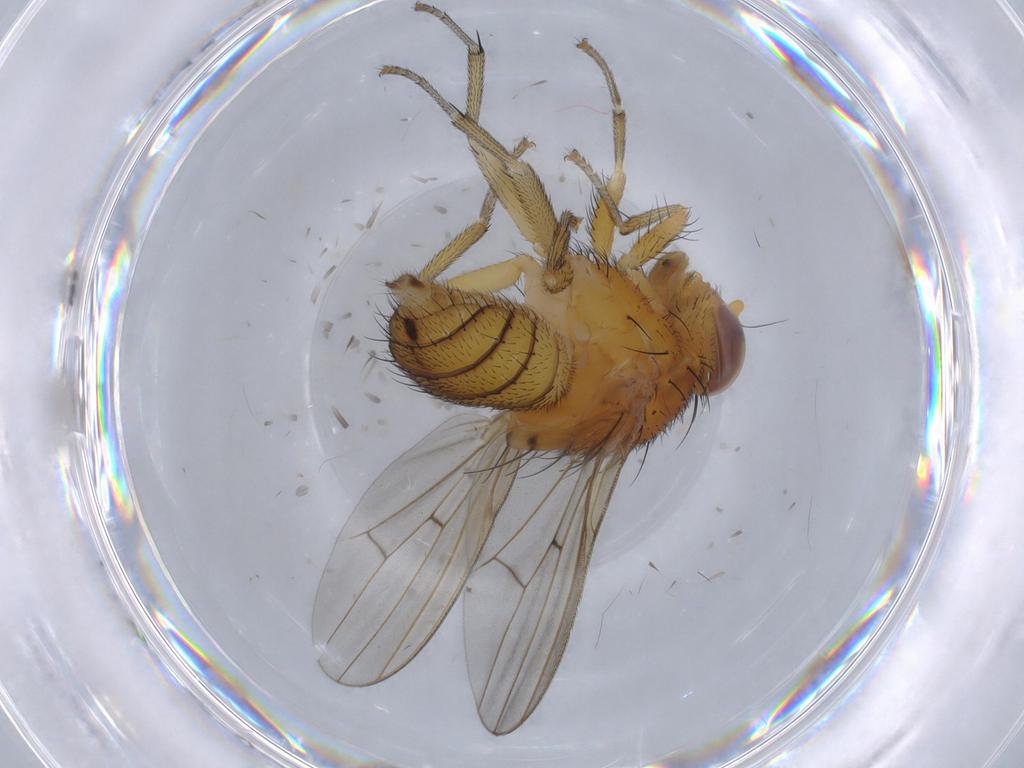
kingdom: Animalia
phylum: Arthropoda
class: Insecta
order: Diptera
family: Sciaridae
